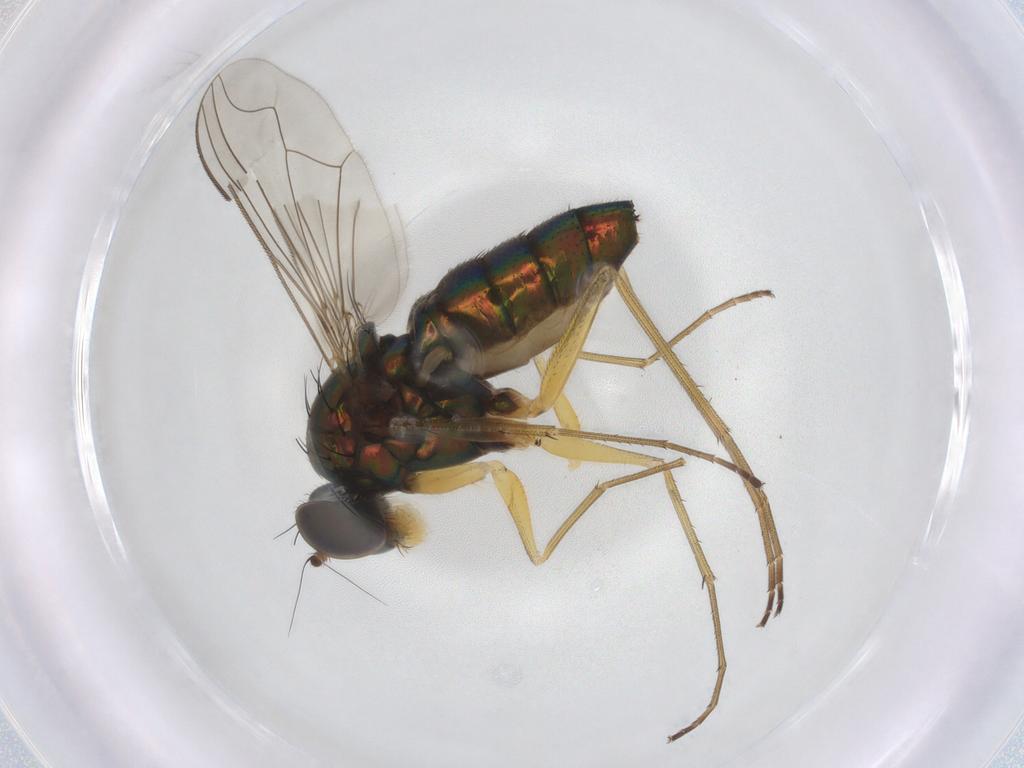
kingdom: Animalia
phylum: Arthropoda
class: Insecta
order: Diptera
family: Dolichopodidae
